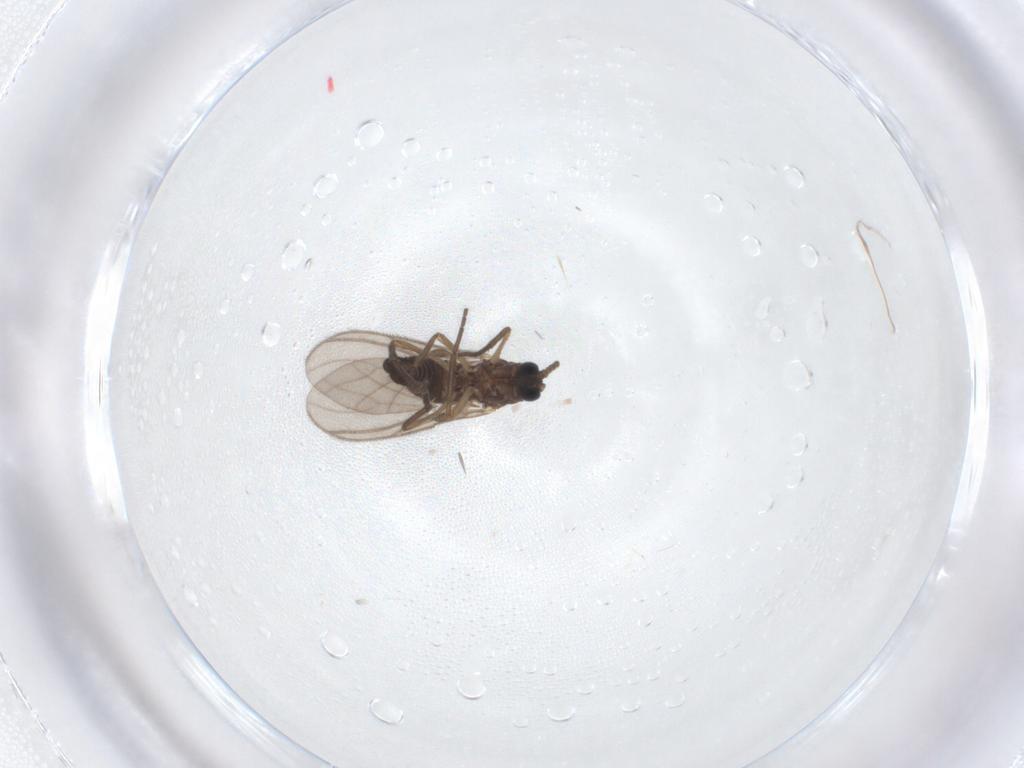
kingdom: Animalia
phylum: Arthropoda
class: Insecta
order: Diptera
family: Sciaridae
